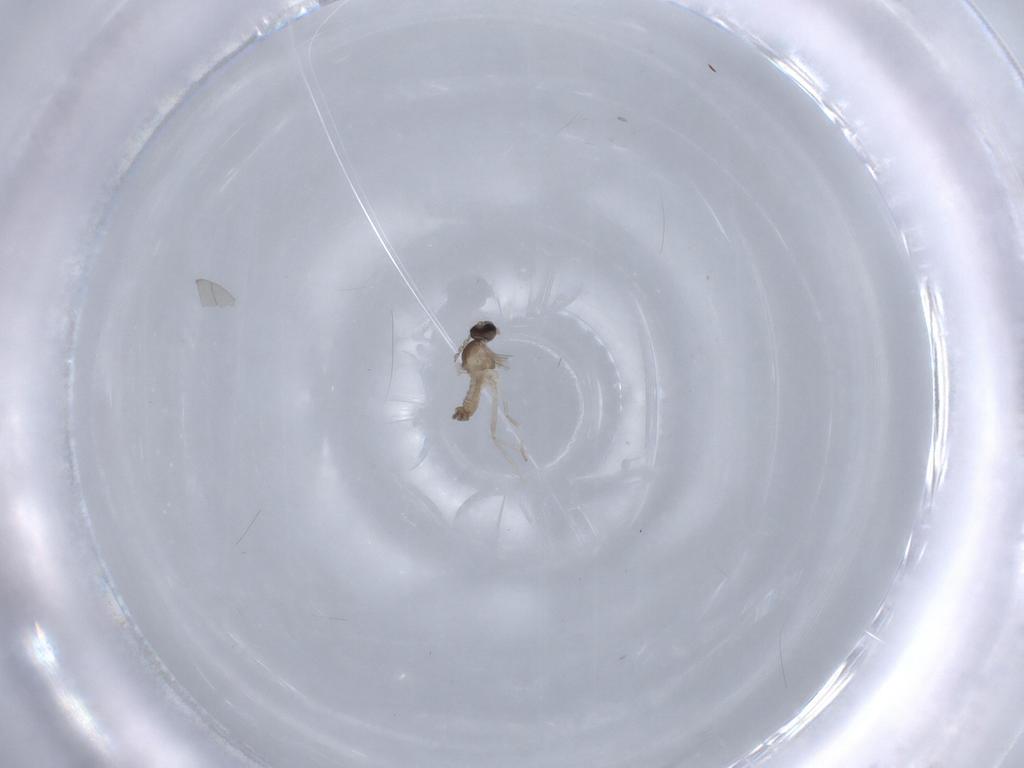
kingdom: Animalia
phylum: Arthropoda
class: Insecta
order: Diptera
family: Cecidomyiidae
